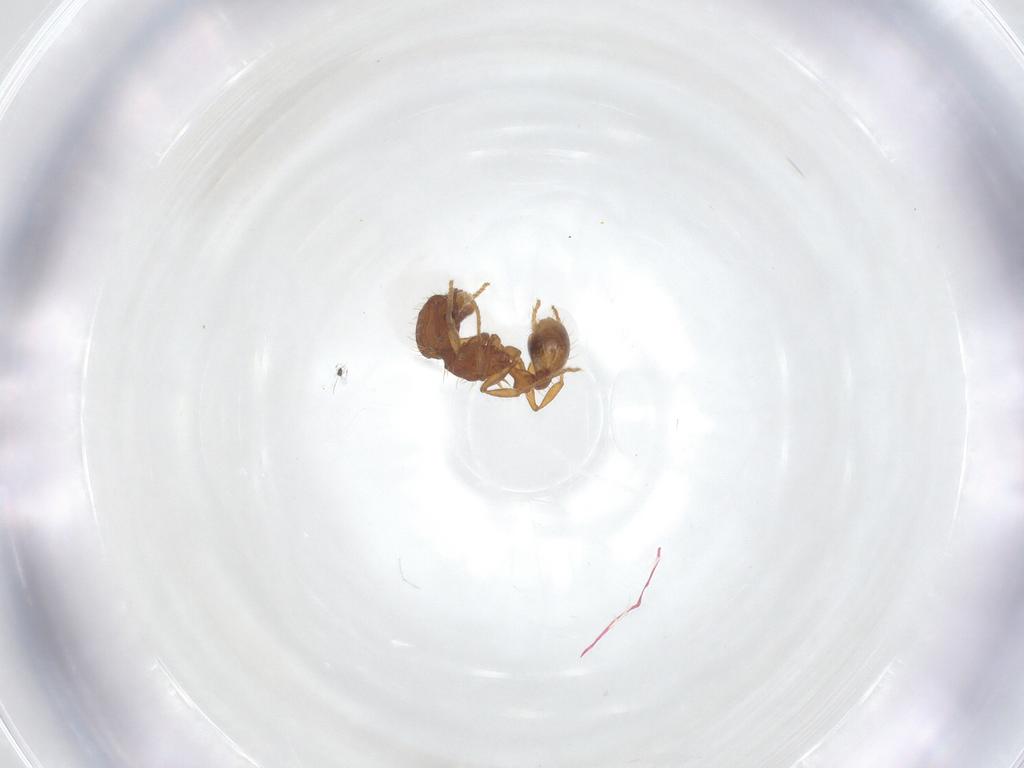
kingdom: Animalia
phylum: Arthropoda
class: Insecta
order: Hymenoptera
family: Formicidae
